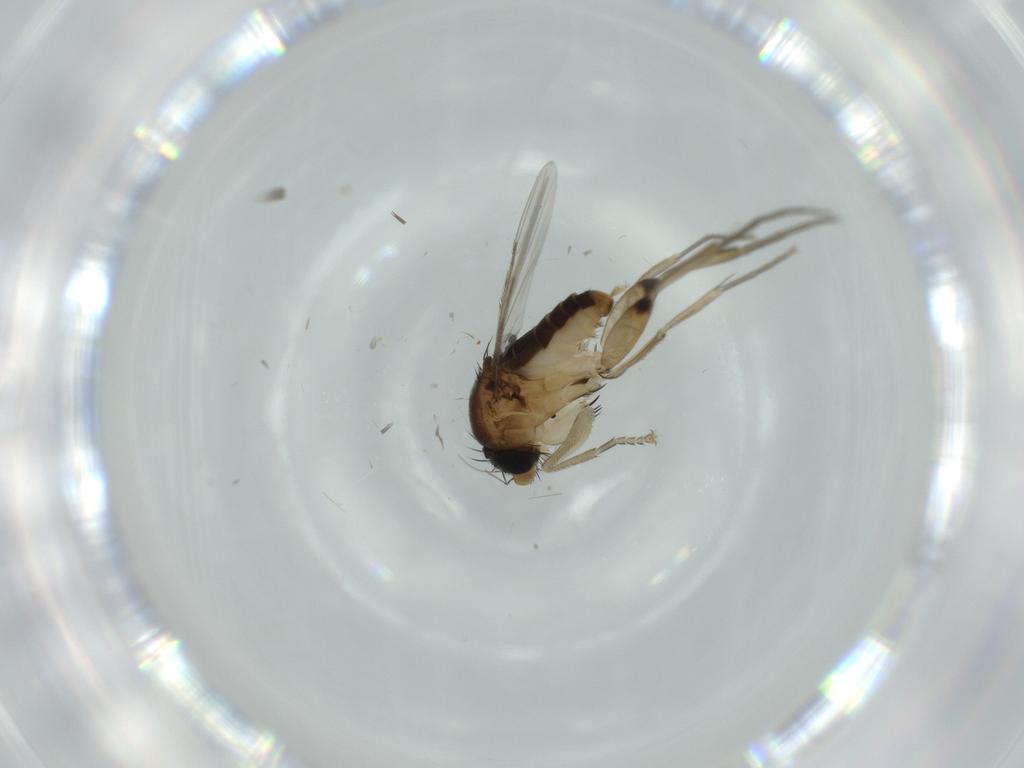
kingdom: Animalia
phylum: Arthropoda
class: Insecta
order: Diptera
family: Phoridae
